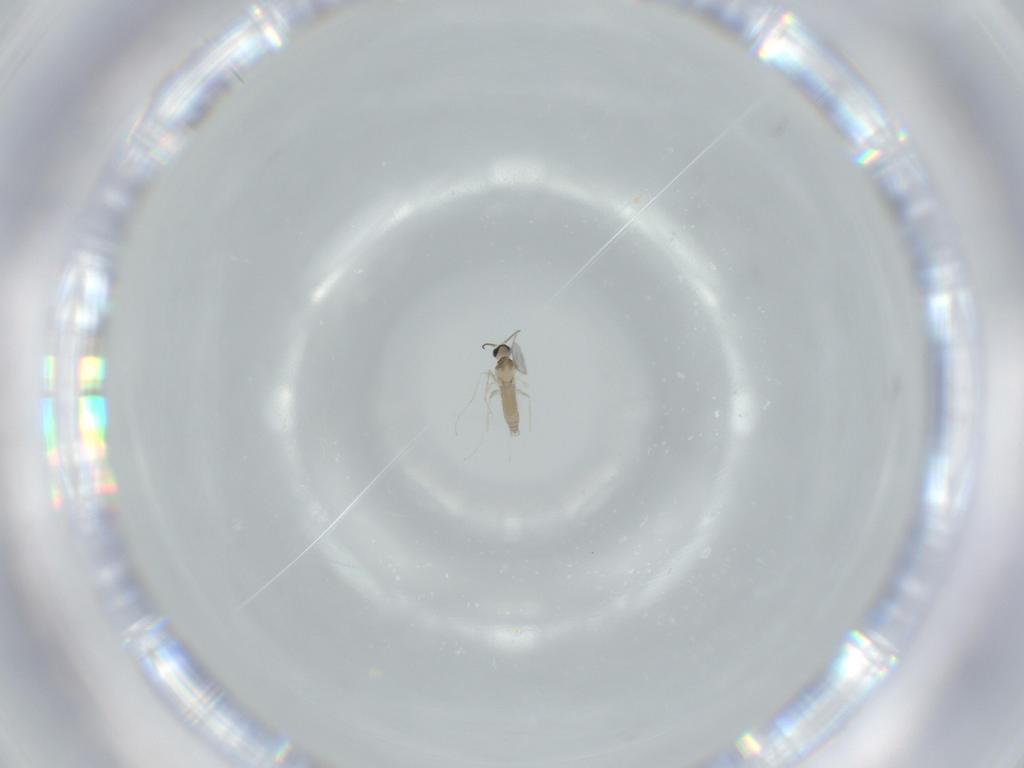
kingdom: Animalia
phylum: Arthropoda
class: Insecta
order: Diptera
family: Sciaridae
